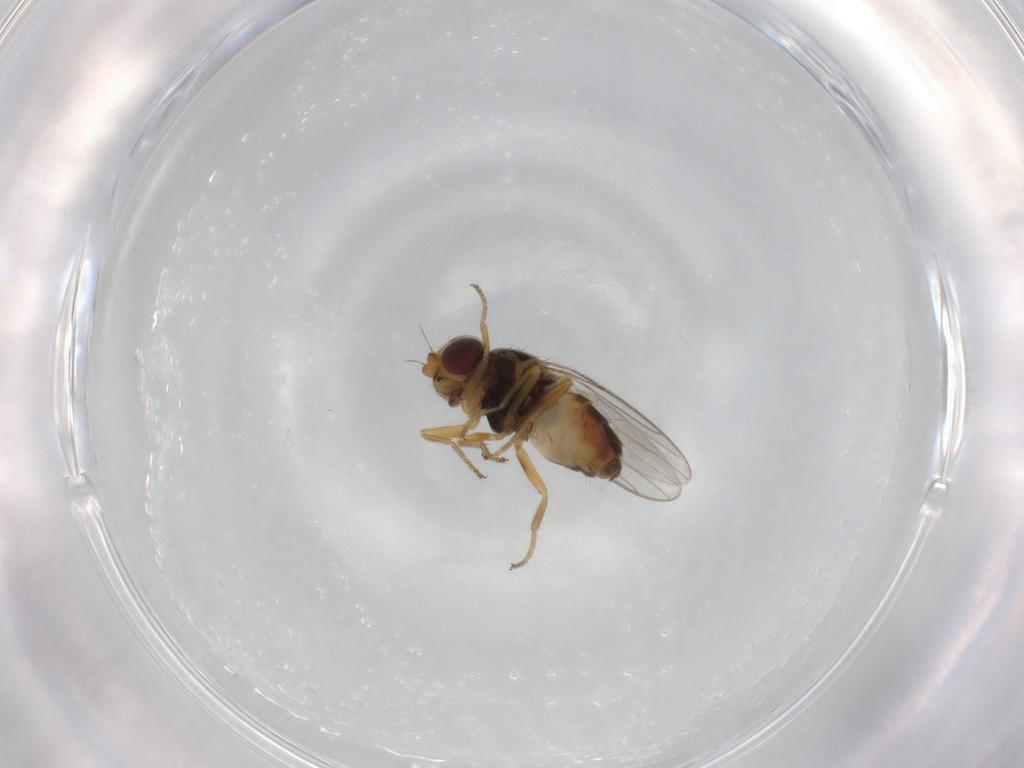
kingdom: Animalia
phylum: Arthropoda
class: Insecta
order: Diptera
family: Chloropidae
